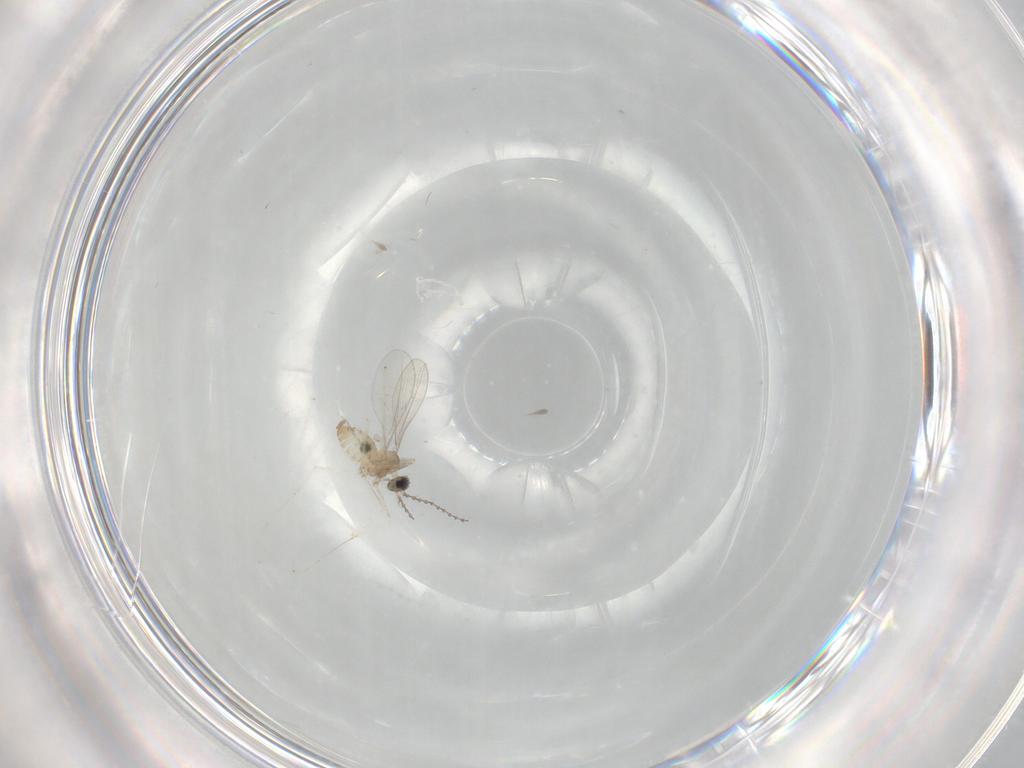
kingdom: Animalia
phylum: Arthropoda
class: Insecta
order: Diptera
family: Cecidomyiidae
